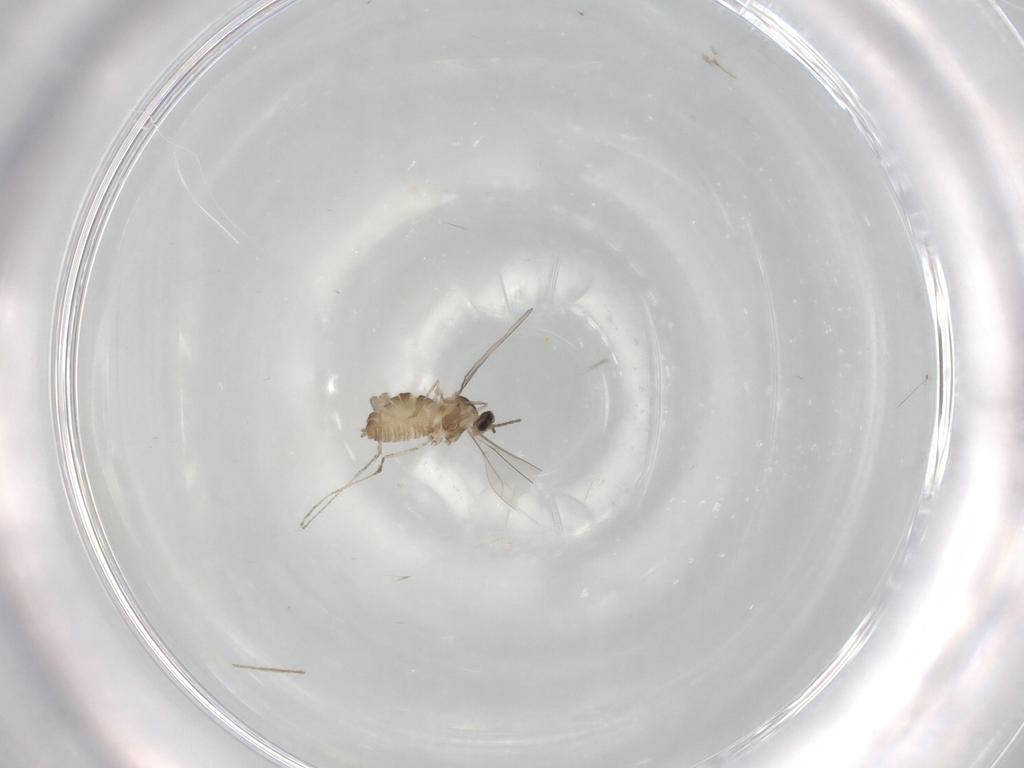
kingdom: Animalia
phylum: Arthropoda
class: Insecta
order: Diptera
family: Cecidomyiidae
